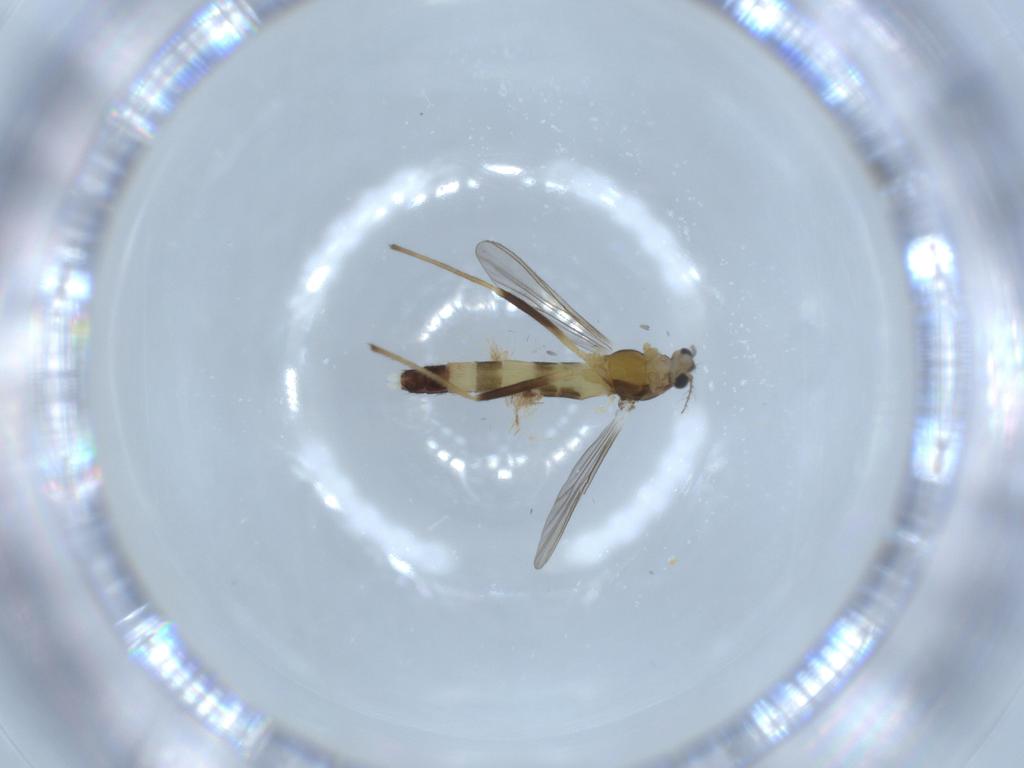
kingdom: Animalia
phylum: Arthropoda
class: Insecta
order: Diptera
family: Chironomidae
